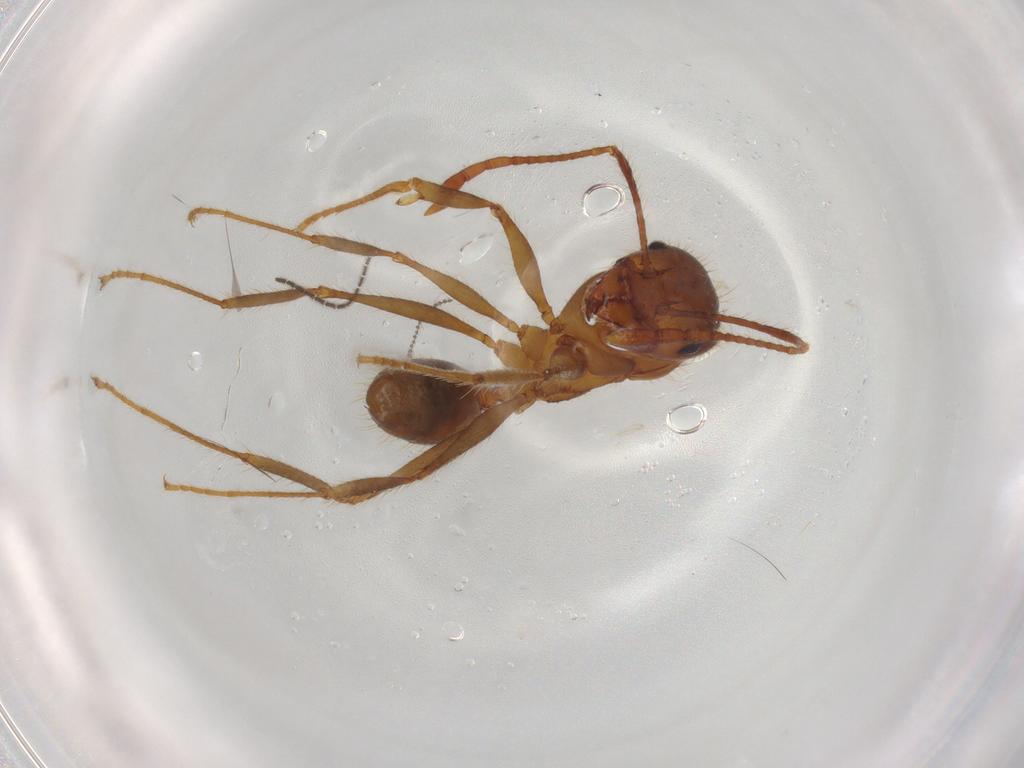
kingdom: Animalia
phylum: Arthropoda
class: Insecta
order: Hymenoptera
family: Formicidae
